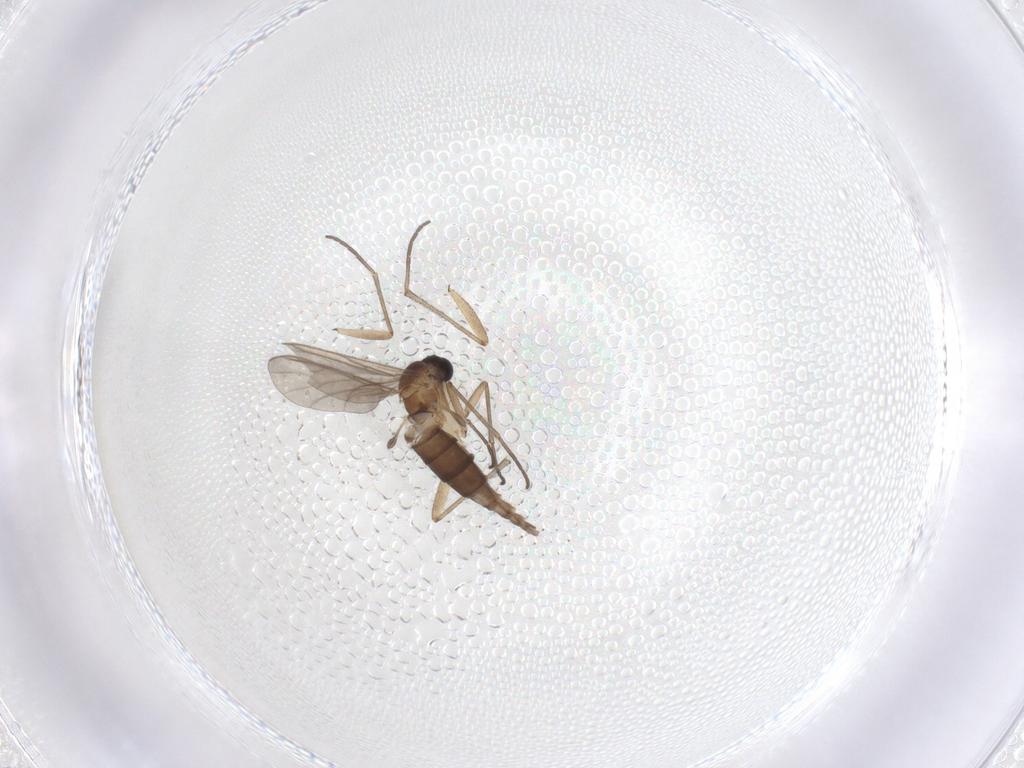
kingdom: Animalia
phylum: Arthropoda
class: Insecta
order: Diptera
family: Sciaridae
